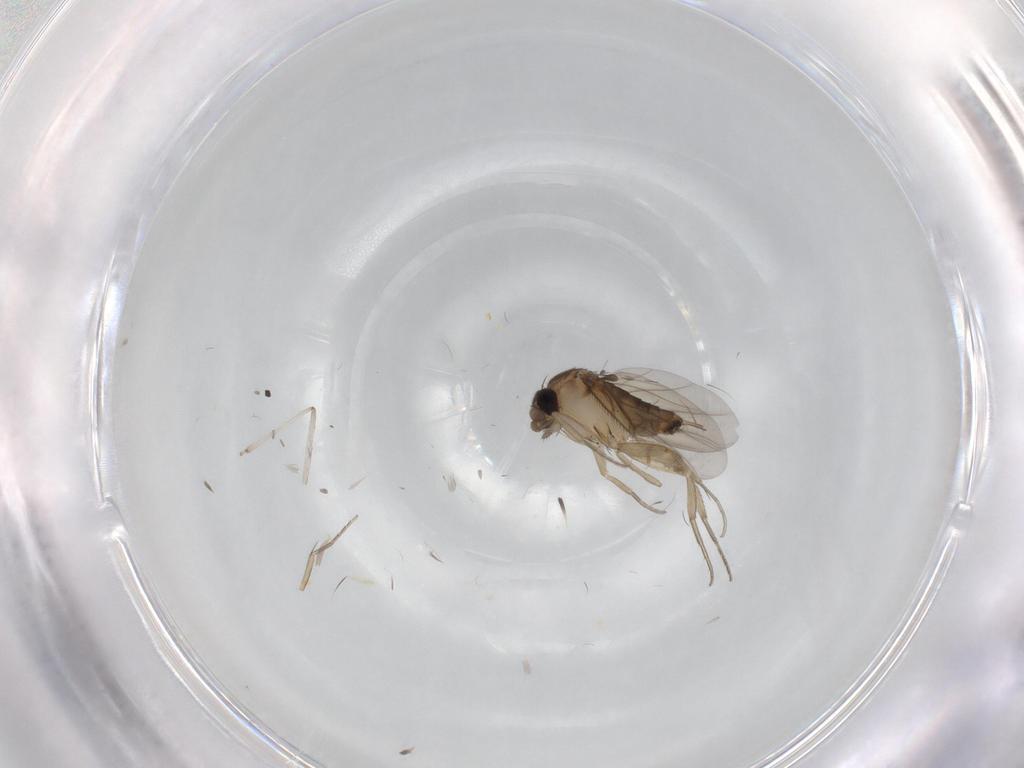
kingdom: Animalia
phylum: Arthropoda
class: Insecta
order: Diptera
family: Chironomidae
